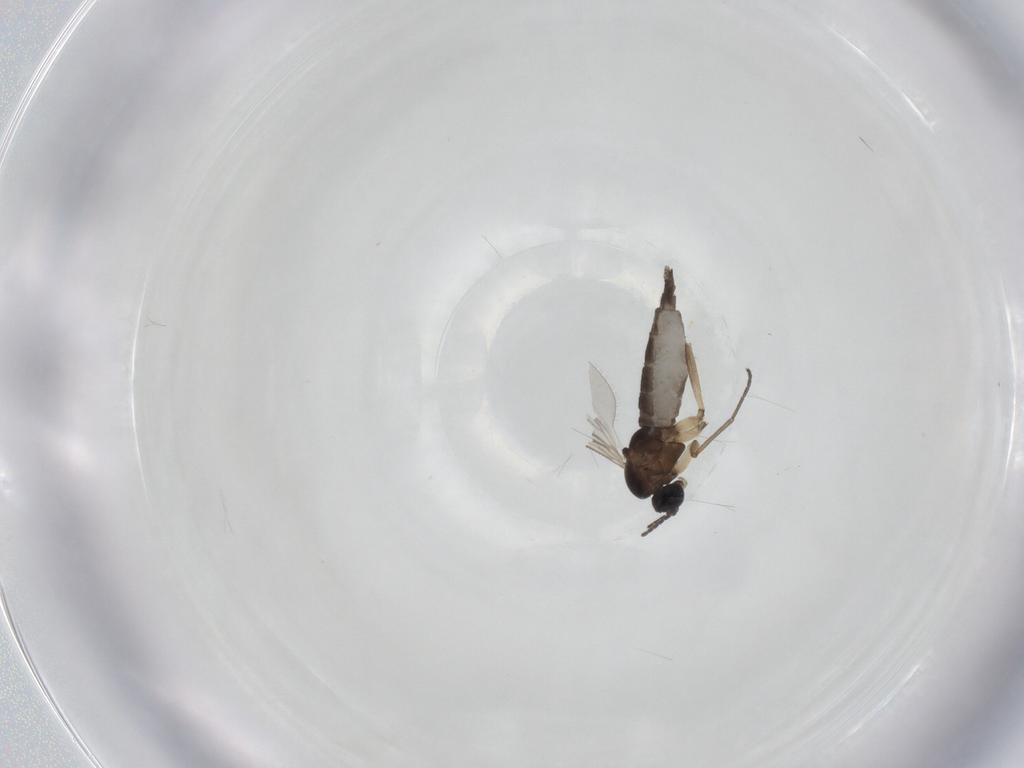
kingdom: Animalia
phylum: Arthropoda
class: Insecta
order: Diptera
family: Sciaridae
